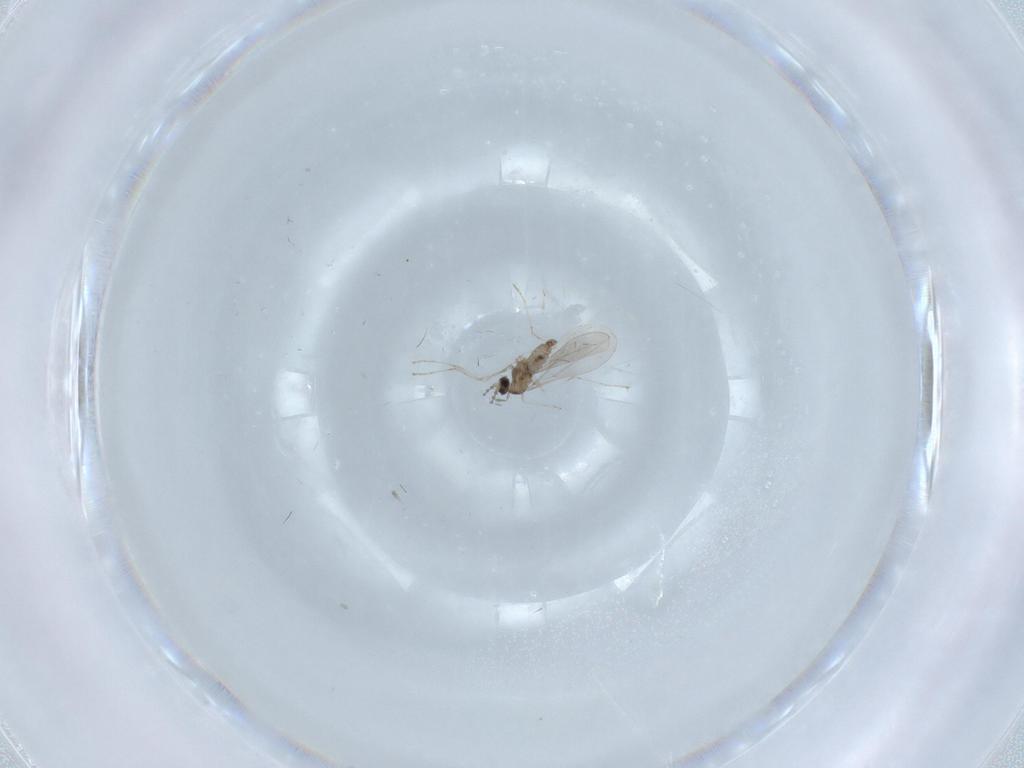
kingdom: Animalia
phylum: Arthropoda
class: Insecta
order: Diptera
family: Cecidomyiidae
